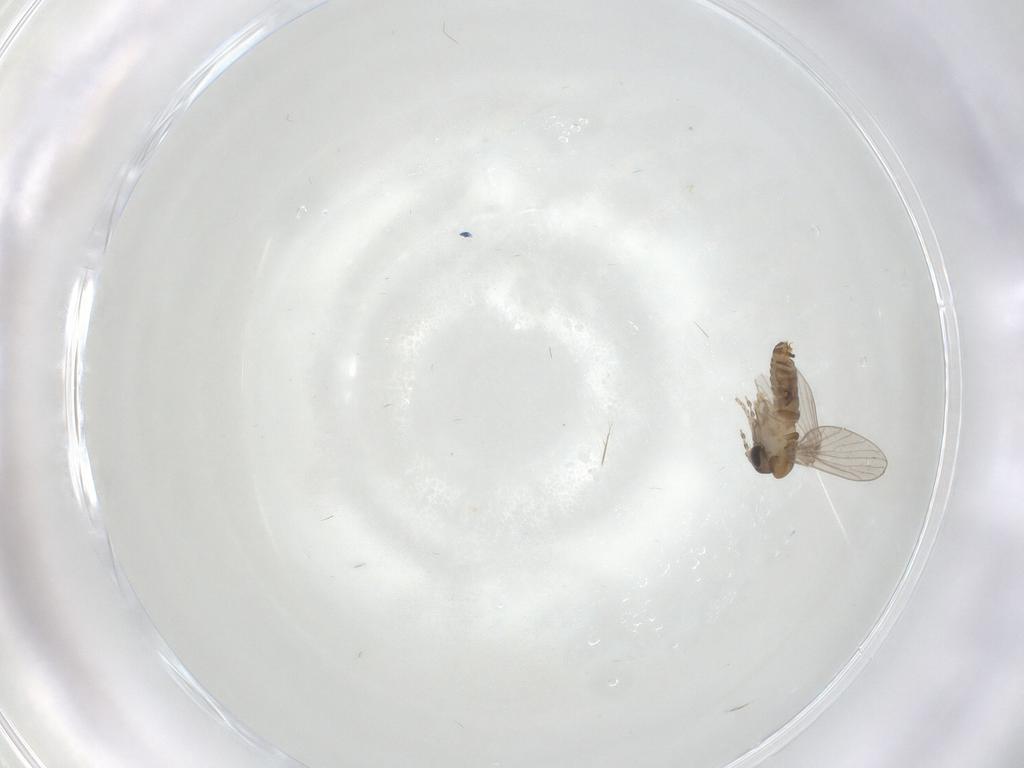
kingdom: Animalia
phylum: Arthropoda
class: Insecta
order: Diptera
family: Psychodidae
